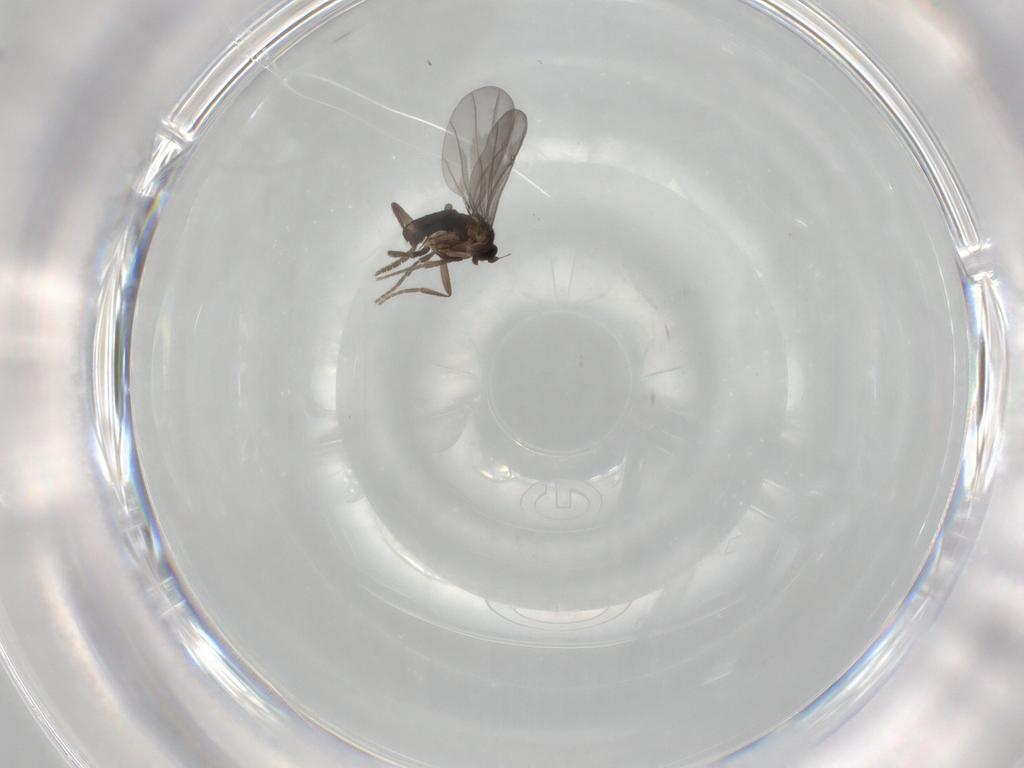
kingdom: Animalia
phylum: Arthropoda
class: Insecta
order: Diptera
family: Phoridae
